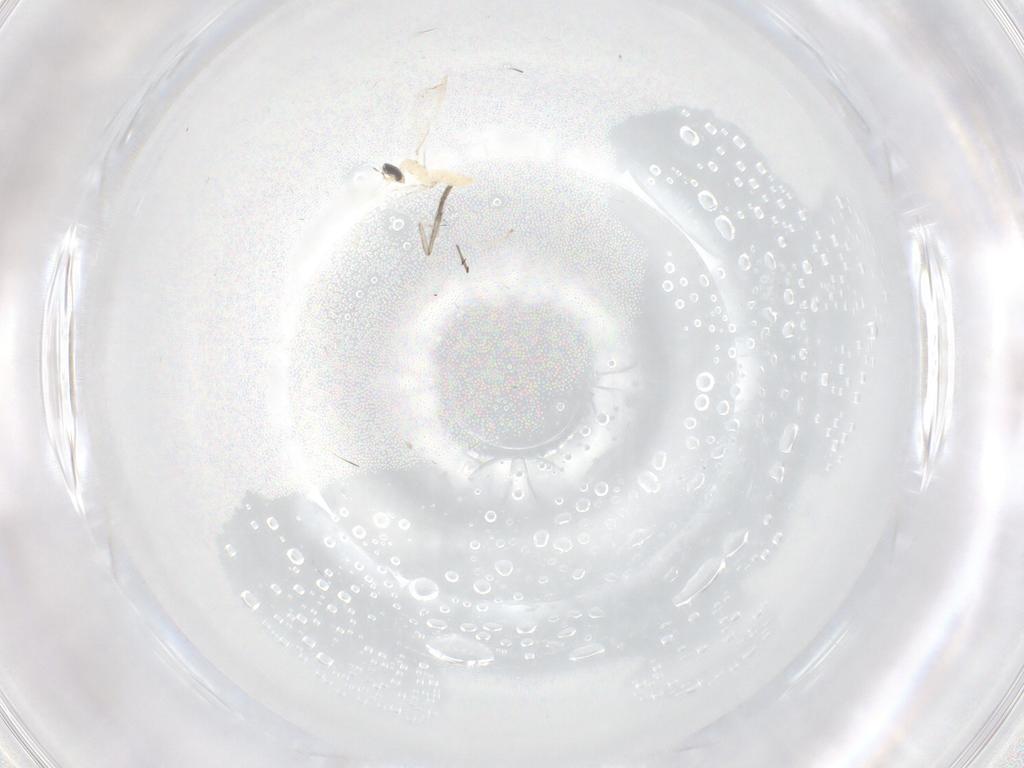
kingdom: Animalia
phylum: Arthropoda
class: Insecta
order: Diptera
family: Cecidomyiidae
